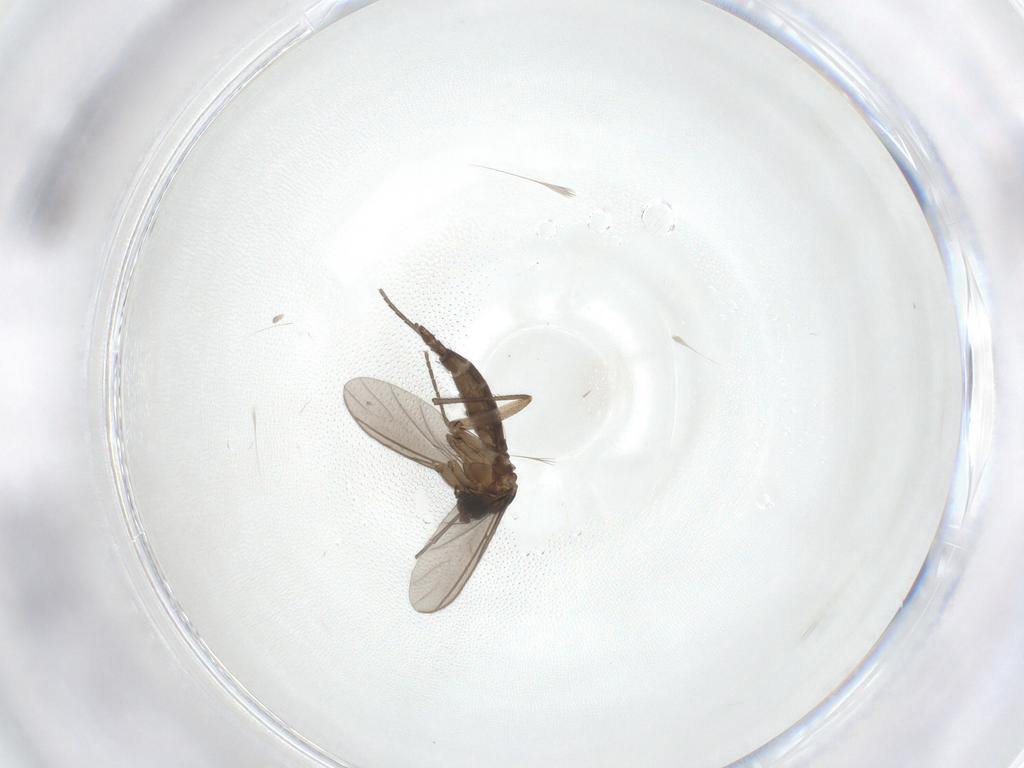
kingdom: Animalia
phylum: Arthropoda
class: Insecta
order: Diptera
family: Sciaridae
